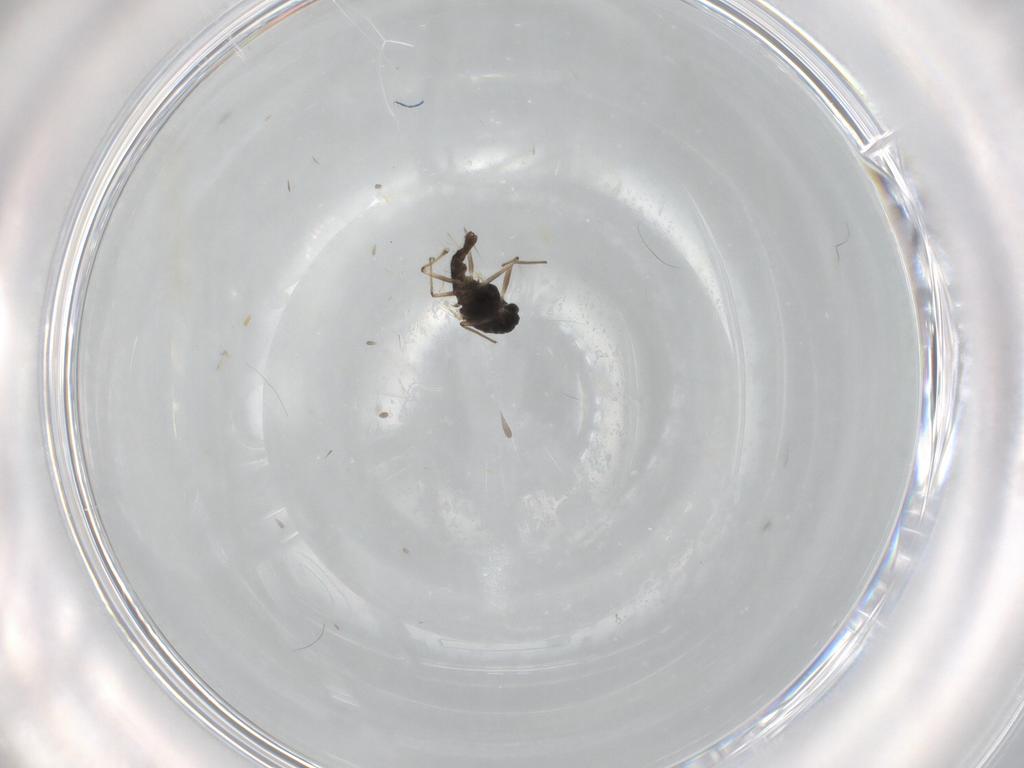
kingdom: Animalia
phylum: Arthropoda
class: Insecta
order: Diptera
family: Chironomidae
